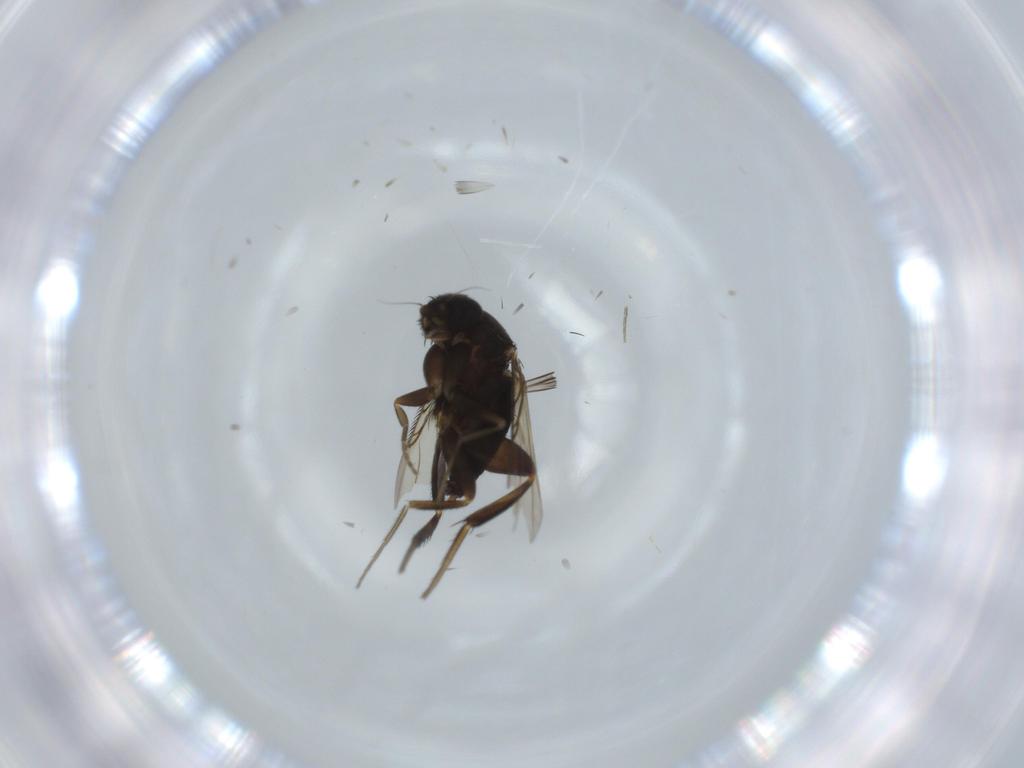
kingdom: Animalia
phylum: Arthropoda
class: Insecta
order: Diptera
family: Phoridae
